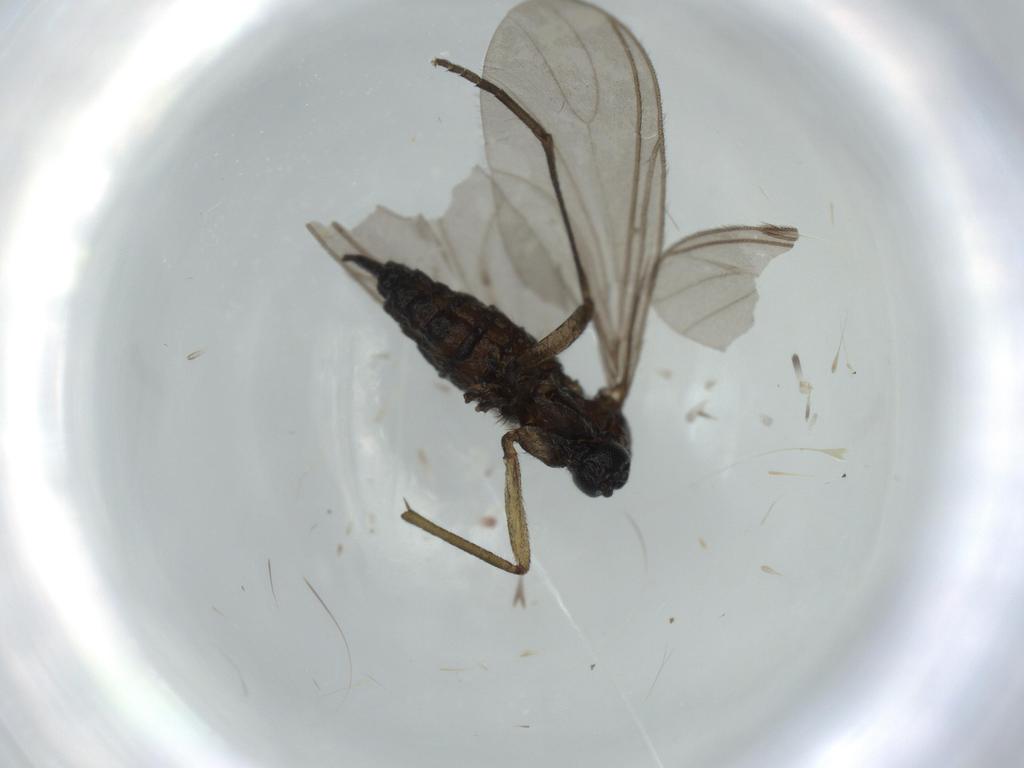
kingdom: Animalia
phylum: Arthropoda
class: Insecta
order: Diptera
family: Sciaridae
